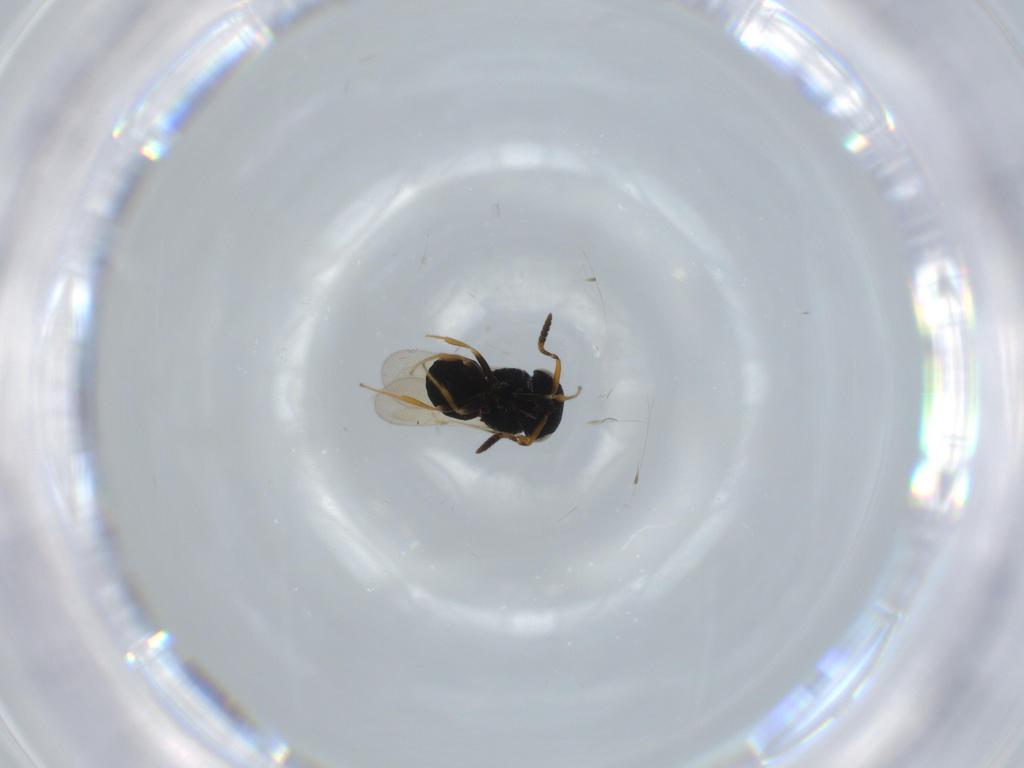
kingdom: Animalia
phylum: Arthropoda
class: Insecta
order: Hymenoptera
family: Scelionidae
